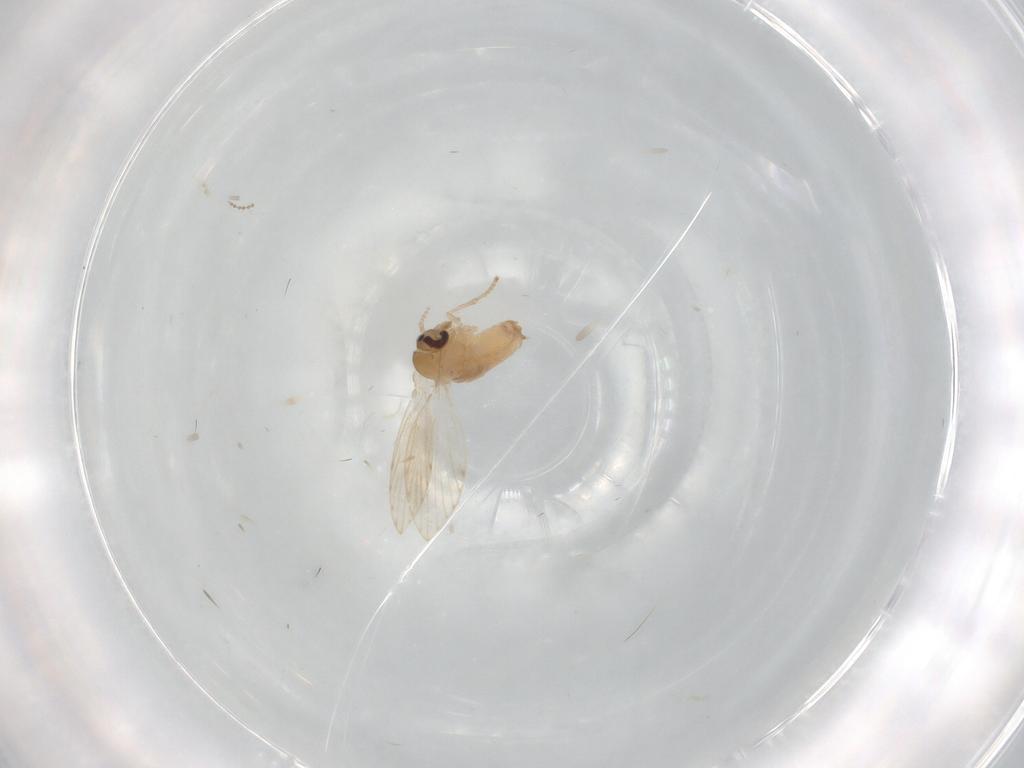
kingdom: Animalia
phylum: Arthropoda
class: Insecta
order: Diptera
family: Psychodidae
